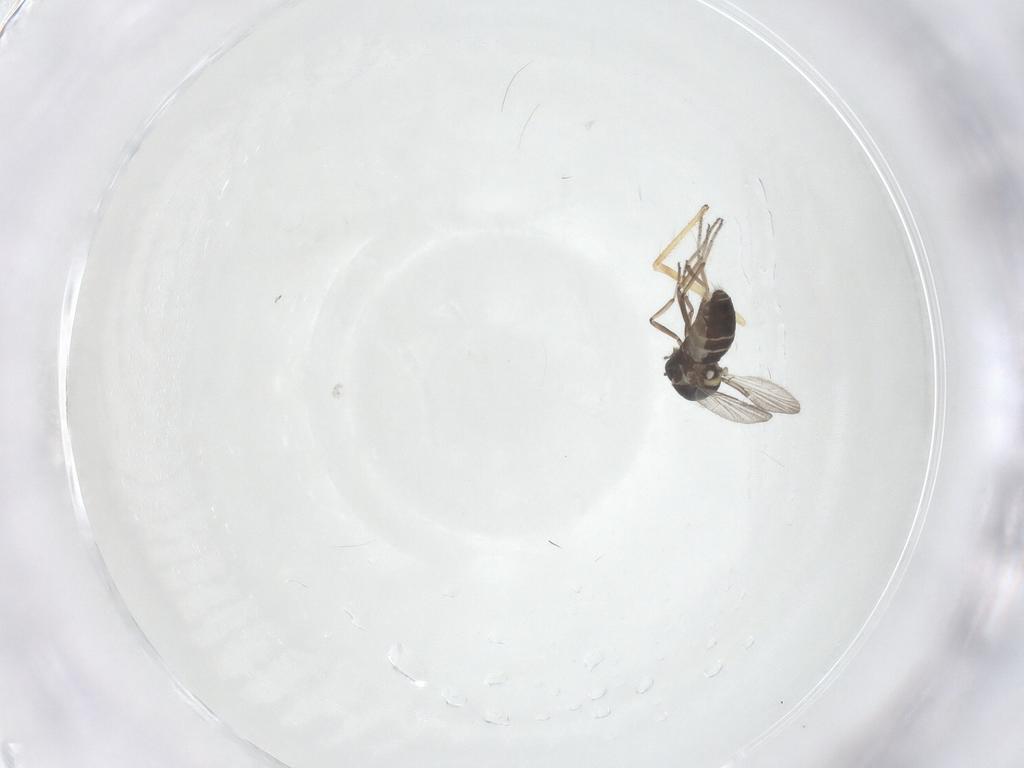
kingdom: Animalia
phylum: Arthropoda
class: Insecta
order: Diptera
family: Ceratopogonidae
